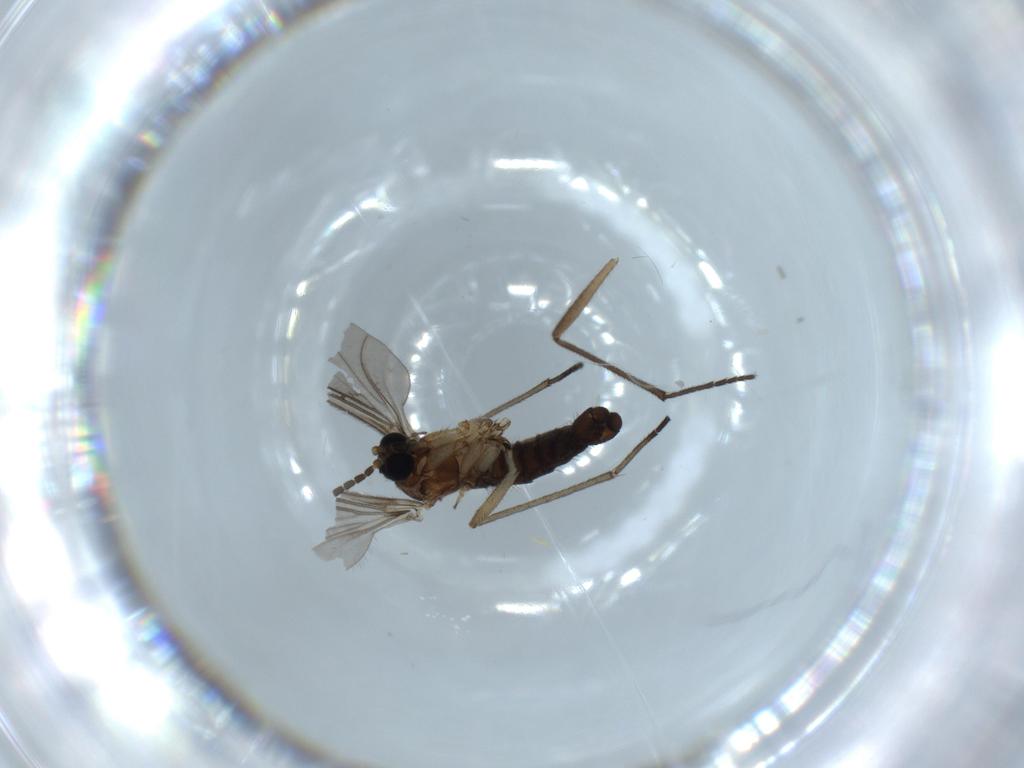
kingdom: Animalia
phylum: Arthropoda
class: Insecta
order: Diptera
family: Sciaridae
